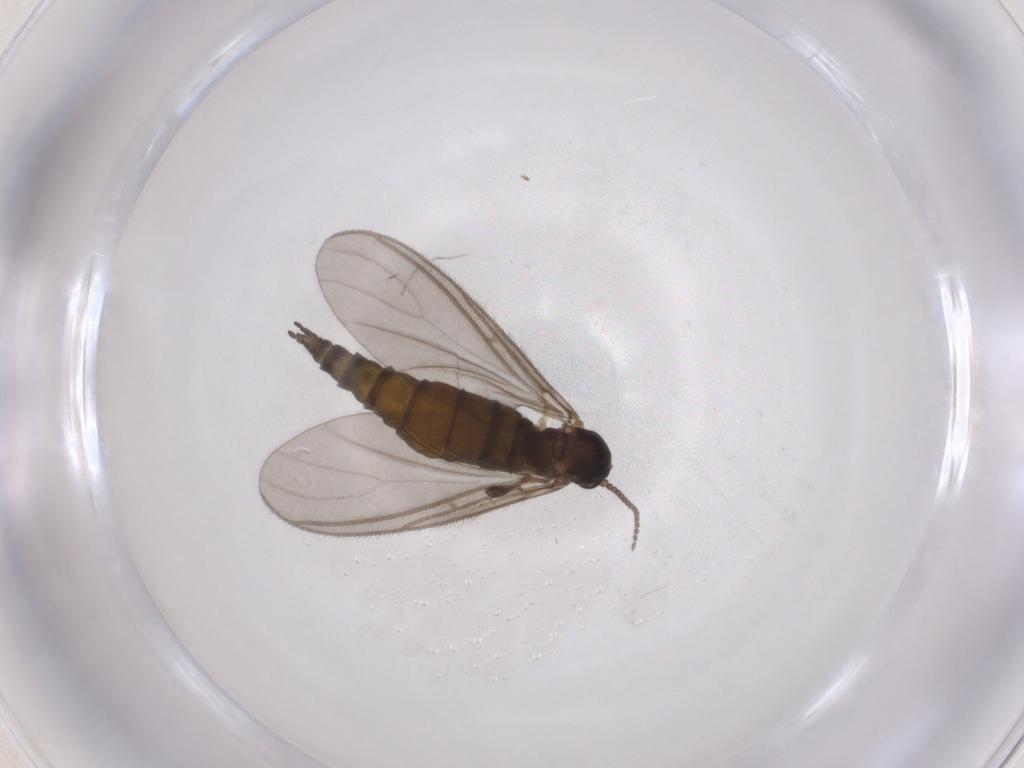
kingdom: Animalia
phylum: Arthropoda
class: Insecta
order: Diptera
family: Sciaridae
